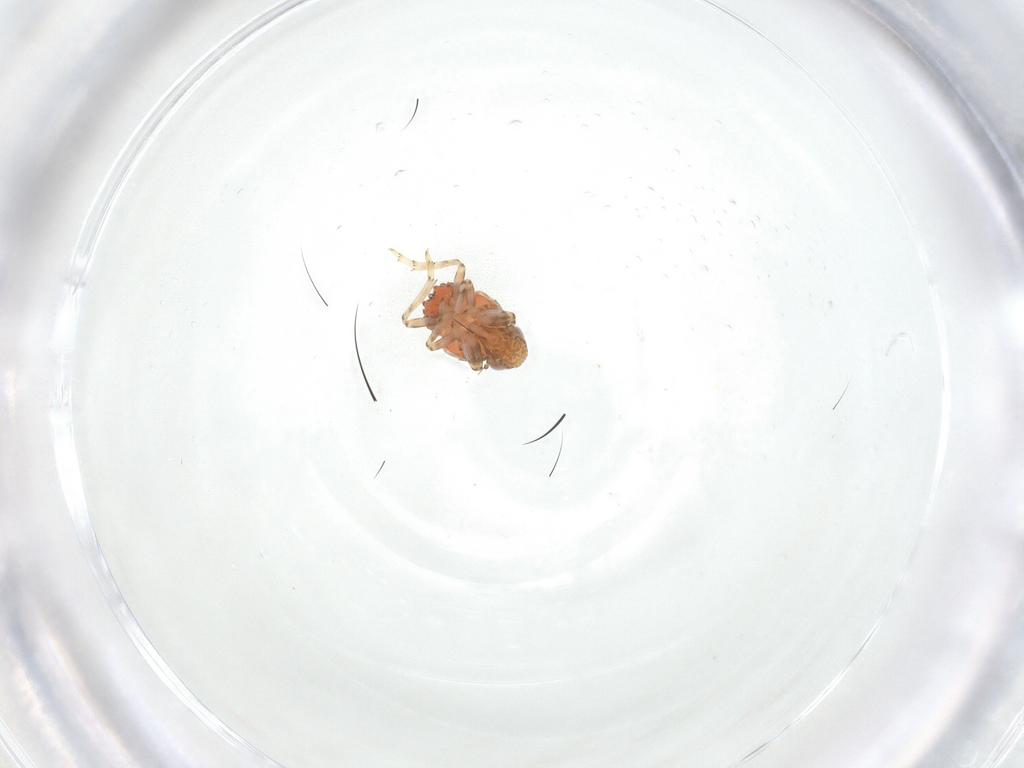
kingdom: Animalia
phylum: Arthropoda
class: Insecta
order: Hemiptera
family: Issidae
